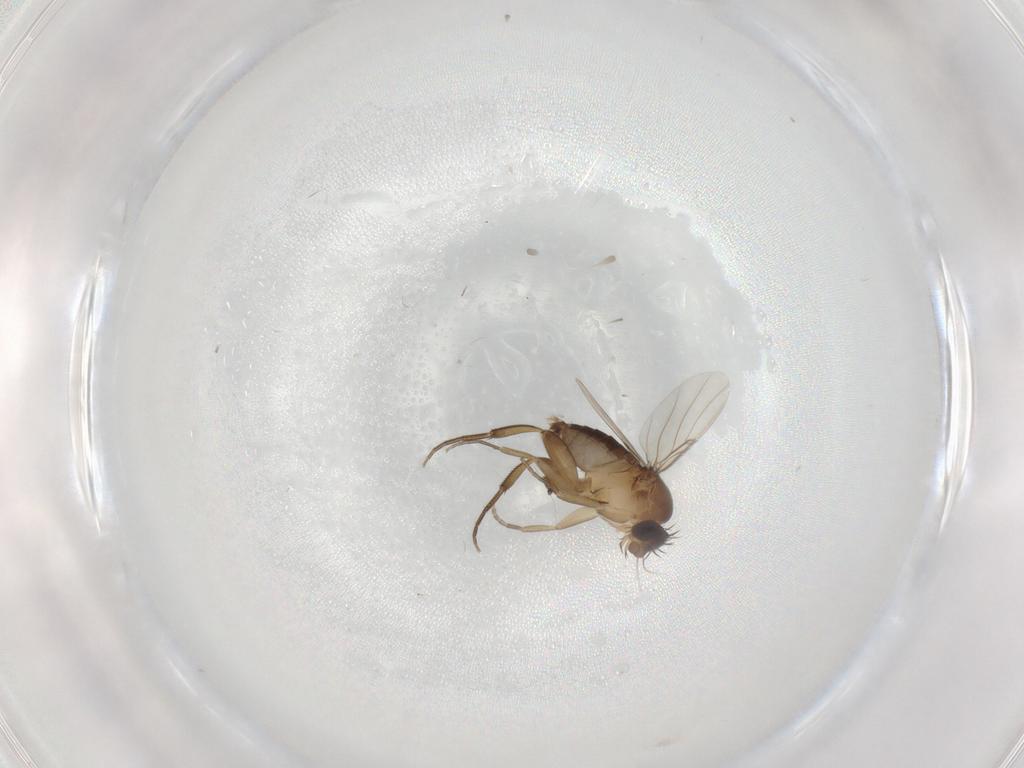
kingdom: Animalia
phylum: Arthropoda
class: Insecta
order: Diptera
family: Phoridae
